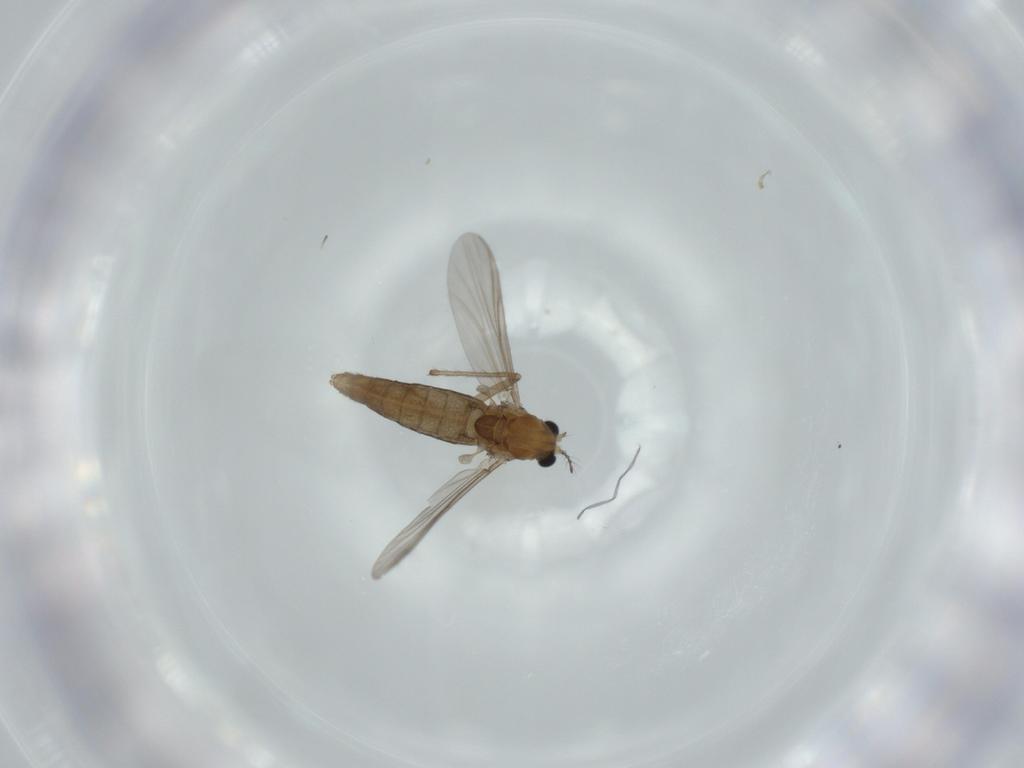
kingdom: Animalia
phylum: Arthropoda
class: Insecta
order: Diptera
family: Chironomidae
